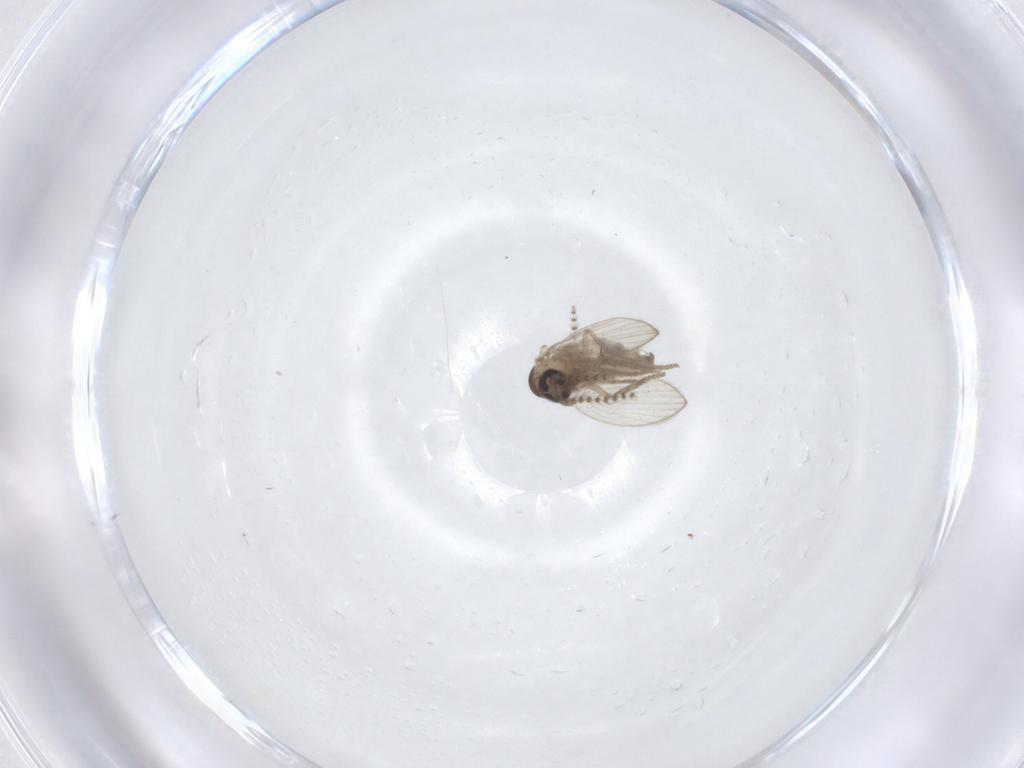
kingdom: Animalia
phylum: Arthropoda
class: Insecta
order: Diptera
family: Psychodidae
